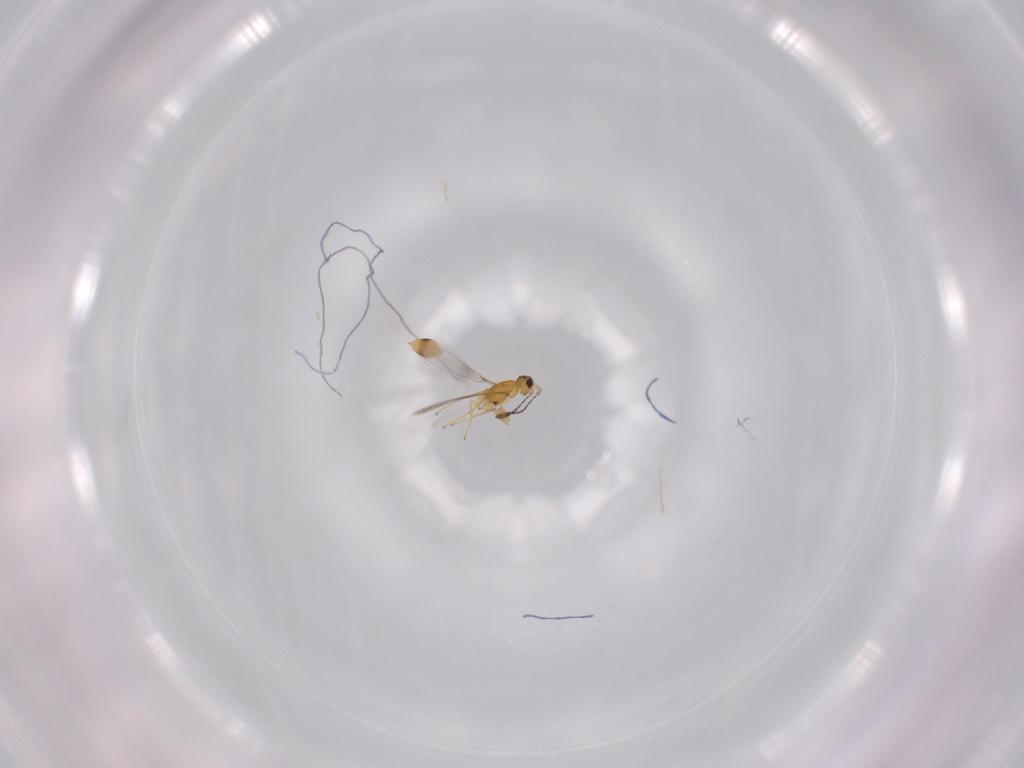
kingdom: Animalia
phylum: Arthropoda
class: Insecta
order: Hymenoptera
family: Mymaridae
